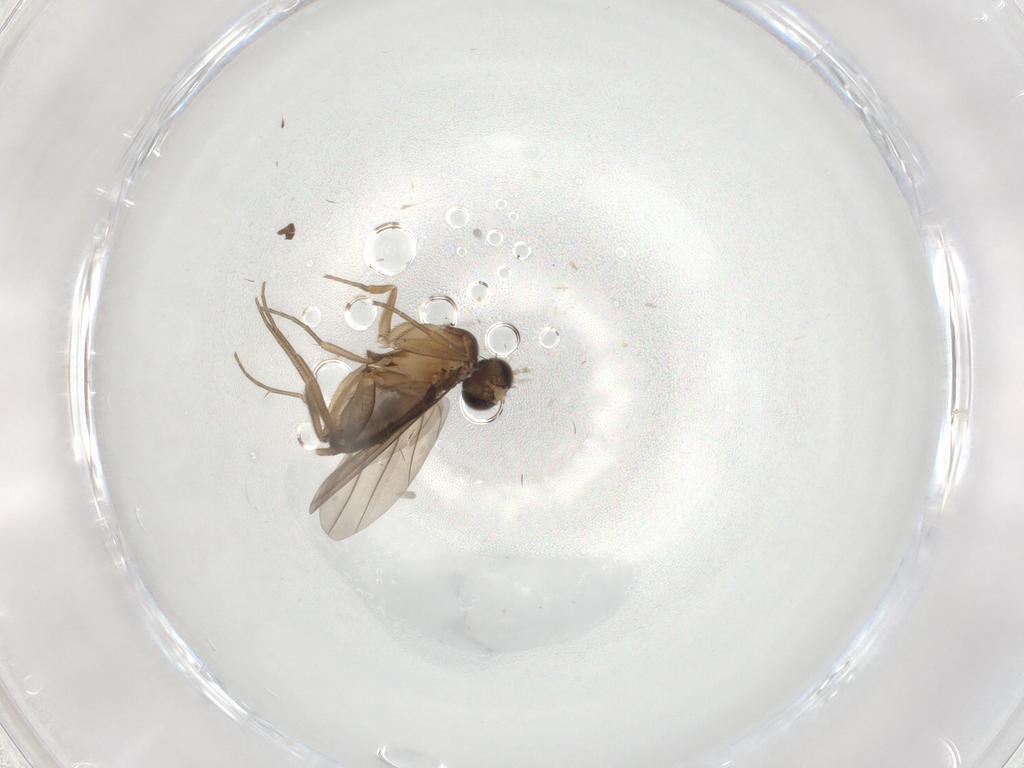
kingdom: Animalia
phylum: Arthropoda
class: Insecta
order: Diptera
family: Phoridae
